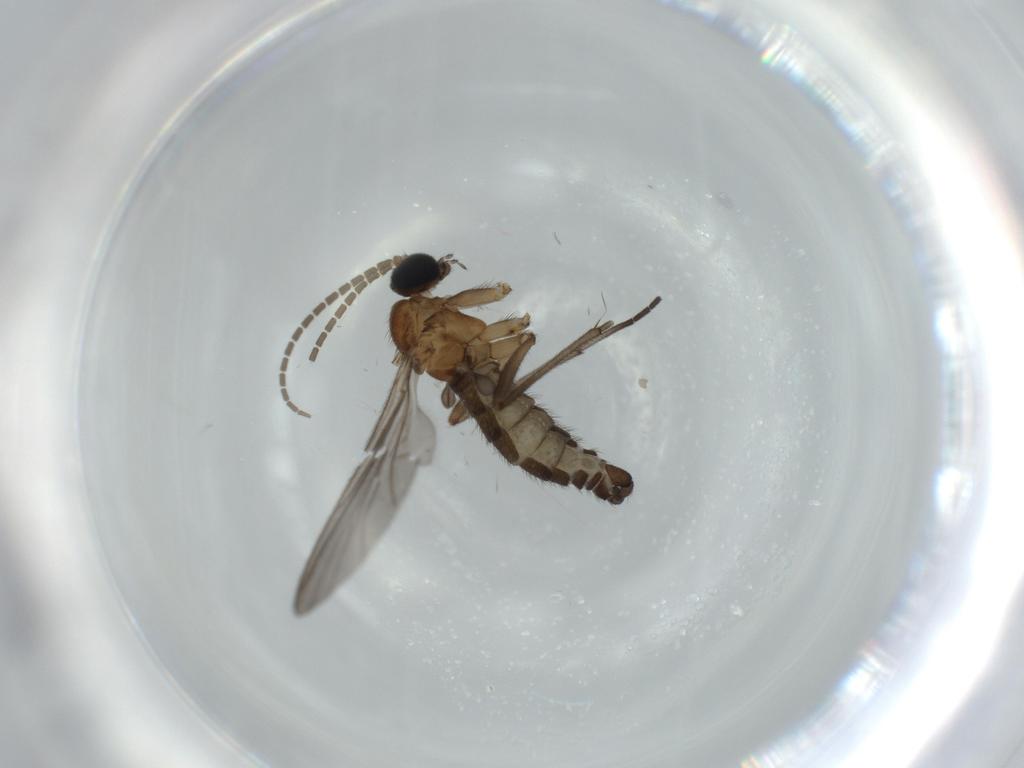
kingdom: Animalia
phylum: Arthropoda
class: Insecta
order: Diptera
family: Sciaridae
